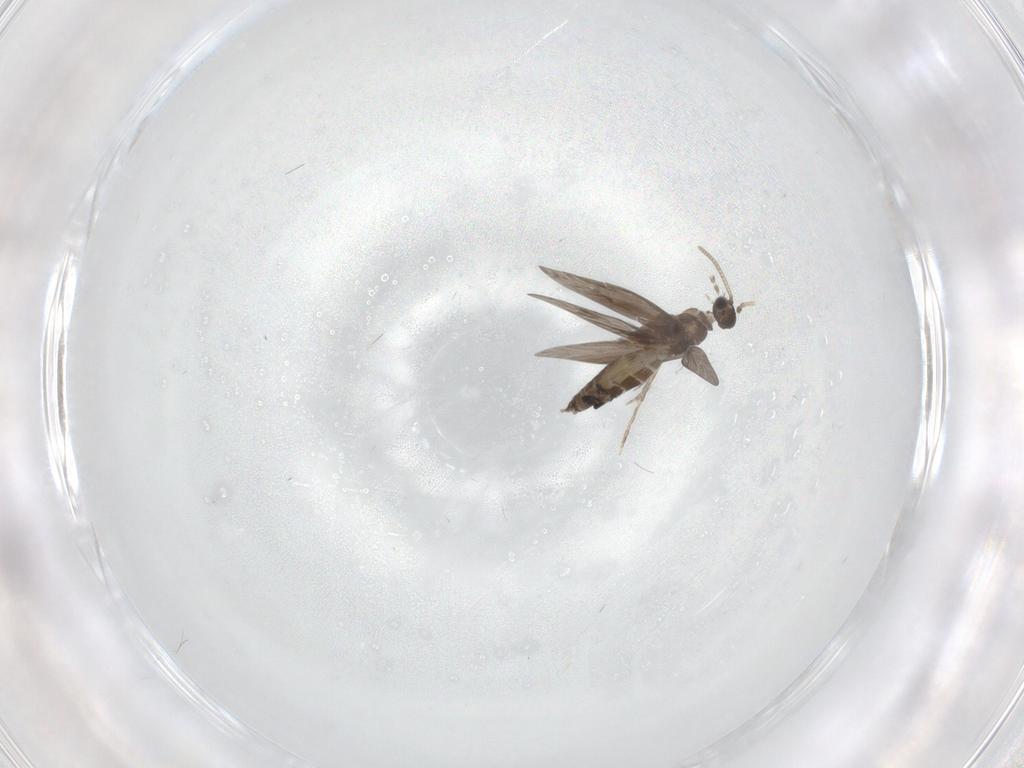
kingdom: Animalia
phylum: Arthropoda
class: Insecta
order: Trichoptera
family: Hydroptilidae
